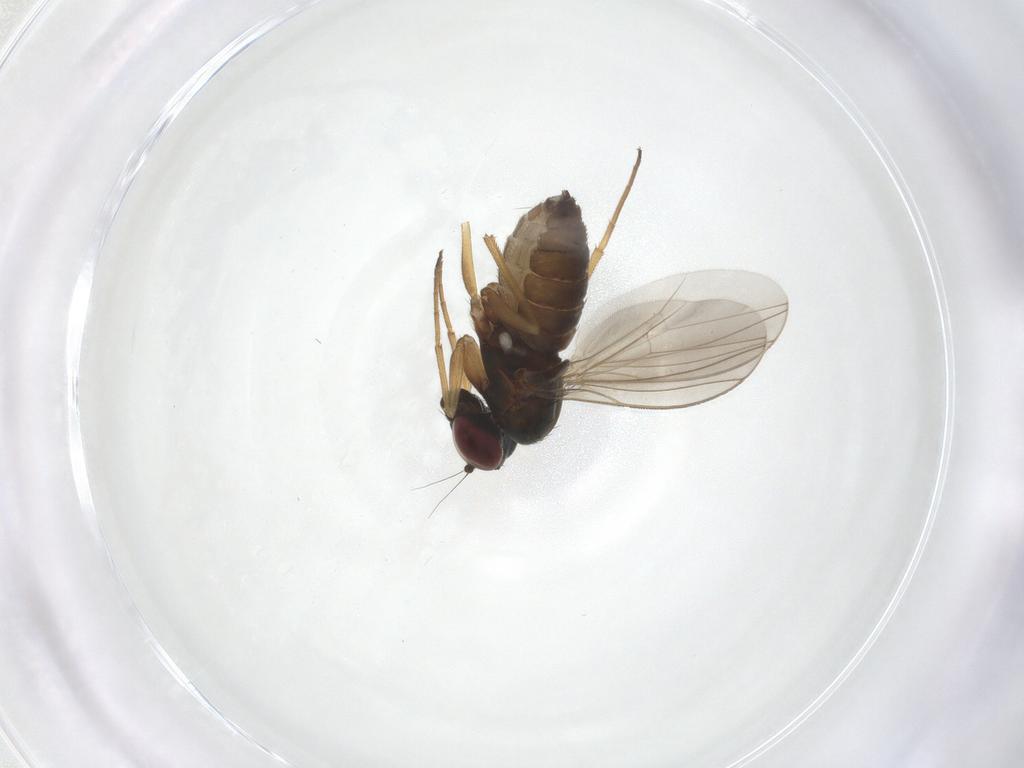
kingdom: Animalia
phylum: Arthropoda
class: Insecta
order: Diptera
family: Dolichopodidae
